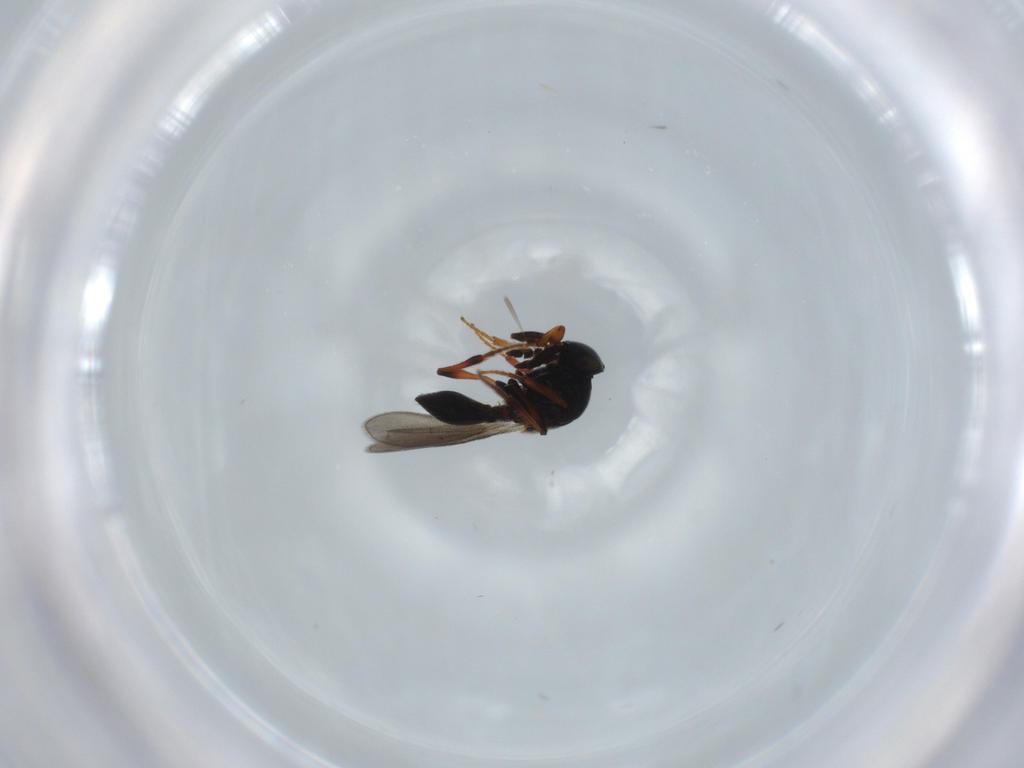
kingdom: Animalia
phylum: Arthropoda
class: Insecta
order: Hymenoptera
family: Platygastridae
